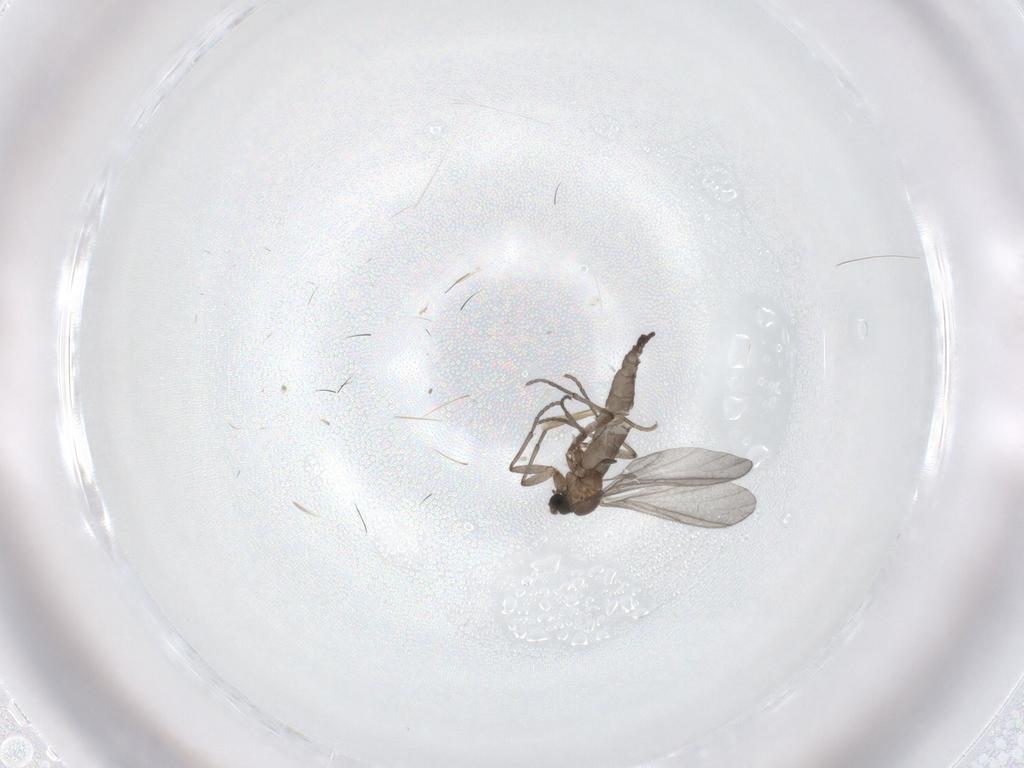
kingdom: Animalia
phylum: Arthropoda
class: Insecta
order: Diptera
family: Sciaridae
